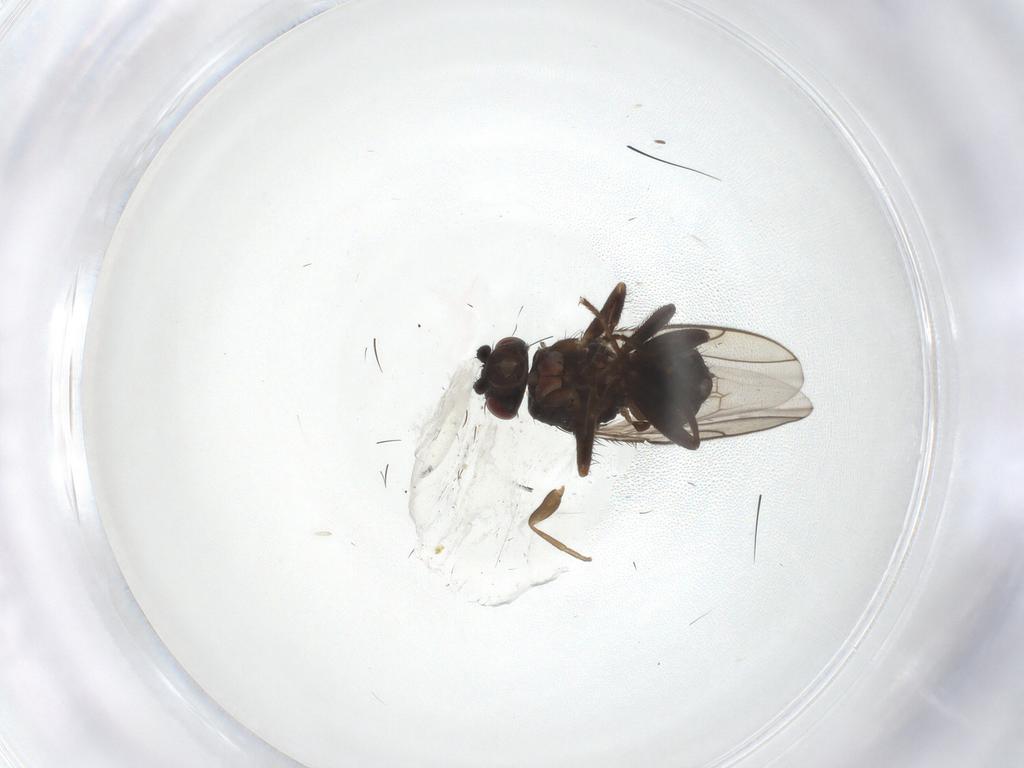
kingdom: Animalia
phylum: Arthropoda
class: Insecta
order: Diptera
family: Sphaeroceridae
